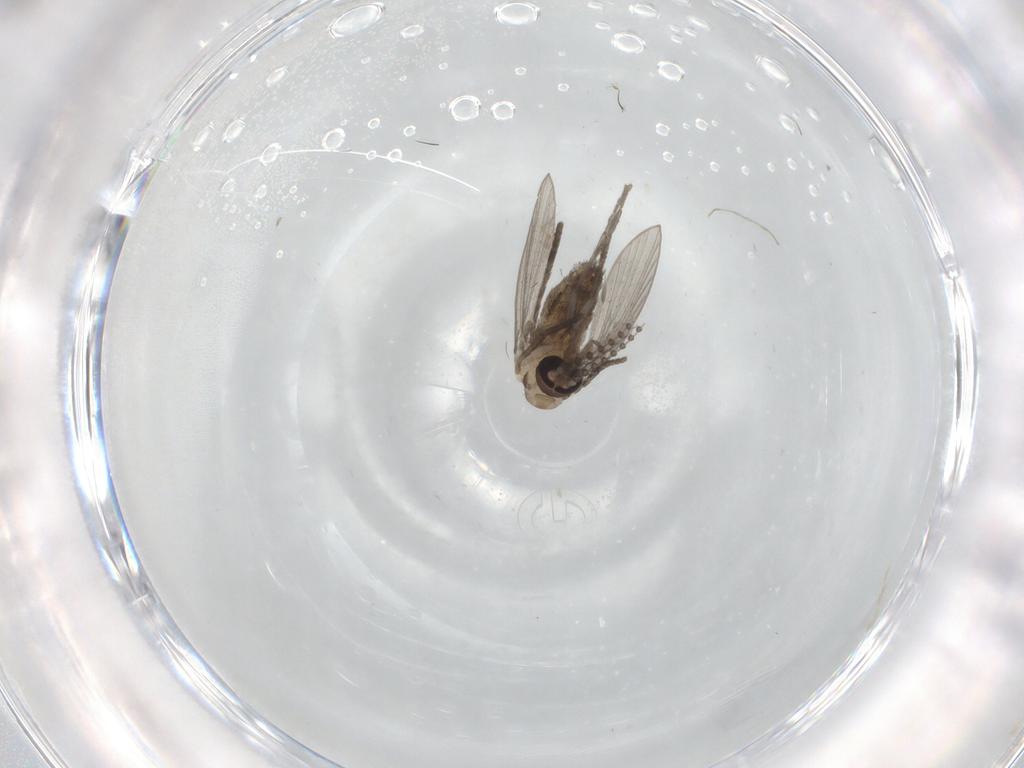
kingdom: Animalia
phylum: Arthropoda
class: Insecta
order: Diptera
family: Psychodidae
